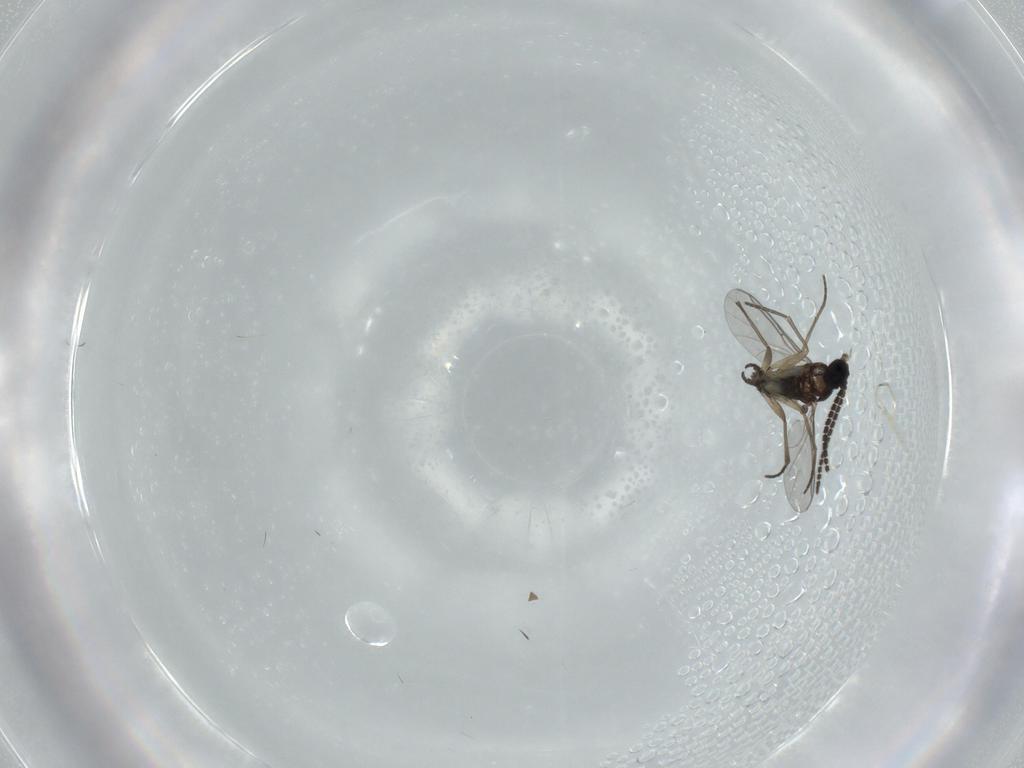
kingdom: Animalia
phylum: Arthropoda
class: Insecta
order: Diptera
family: Sciaridae
